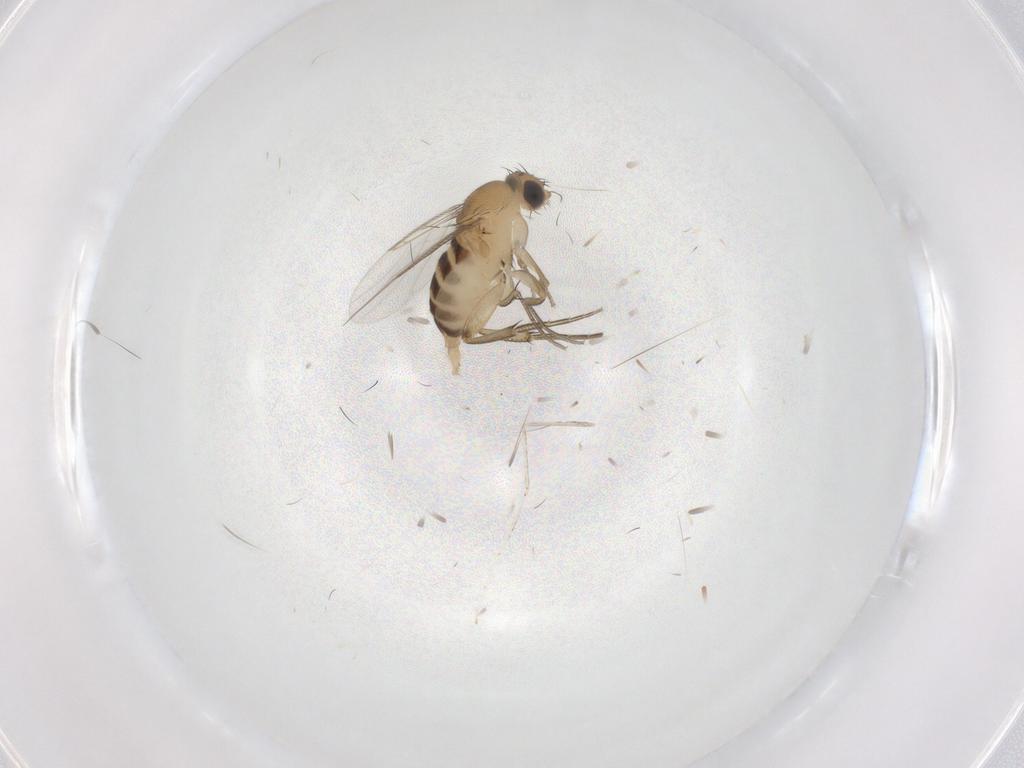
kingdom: Animalia
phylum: Arthropoda
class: Insecta
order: Diptera
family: Phoridae
